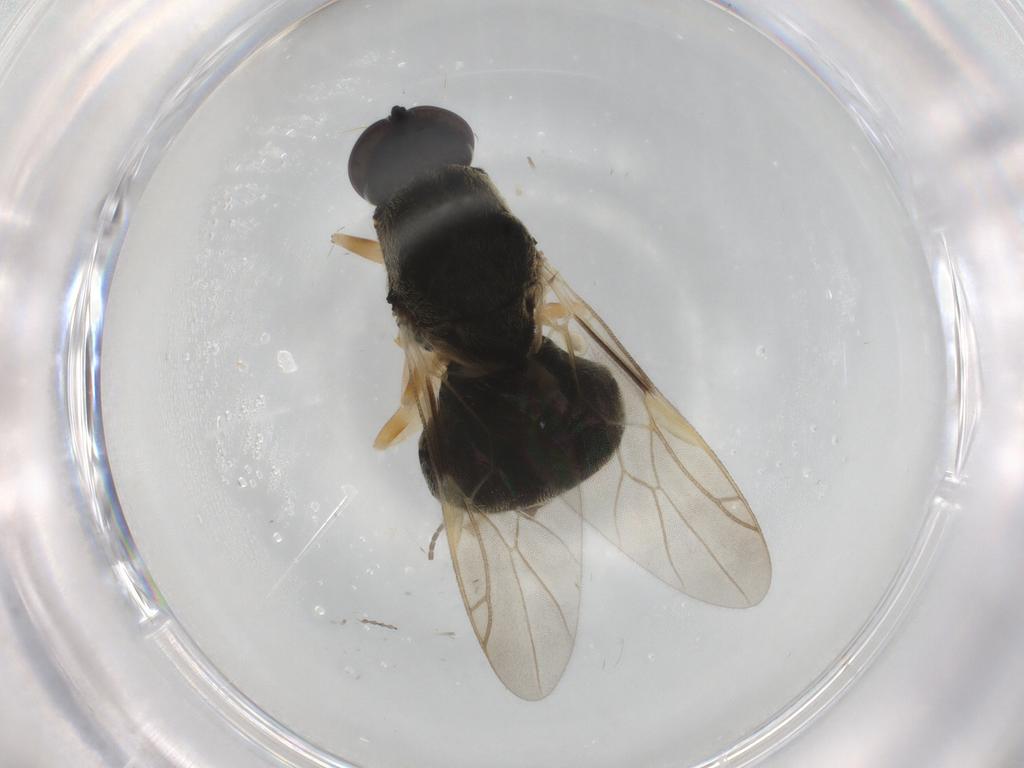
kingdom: Animalia
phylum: Arthropoda
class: Insecta
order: Diptera
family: Stratiomyidae
